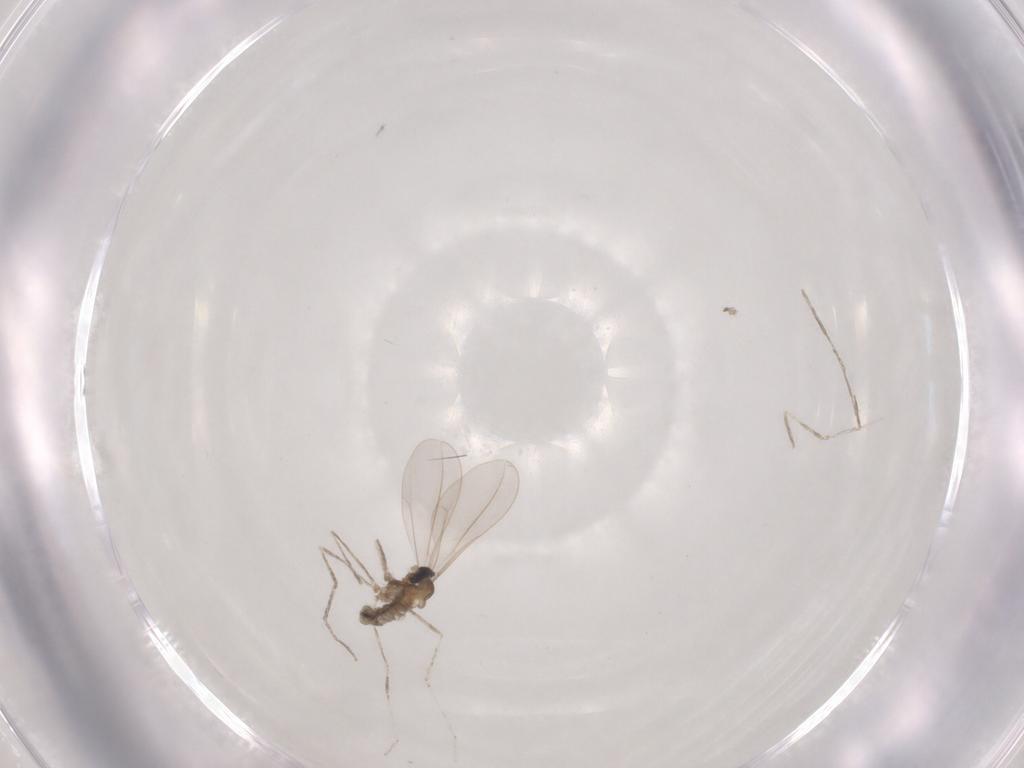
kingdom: Animalia
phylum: Arthropoda
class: Insecta
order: Diptera
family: Cecidomyiidae
